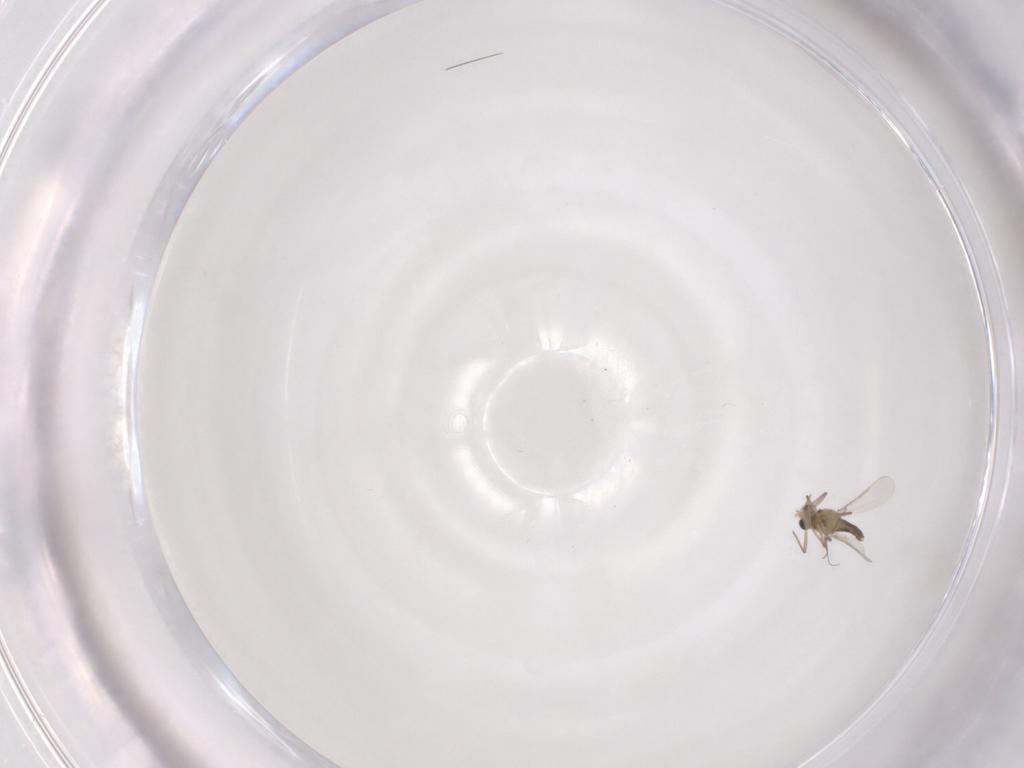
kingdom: Animalia
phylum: Arthropoda
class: Insecta
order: Diptera
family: Chironomidae
